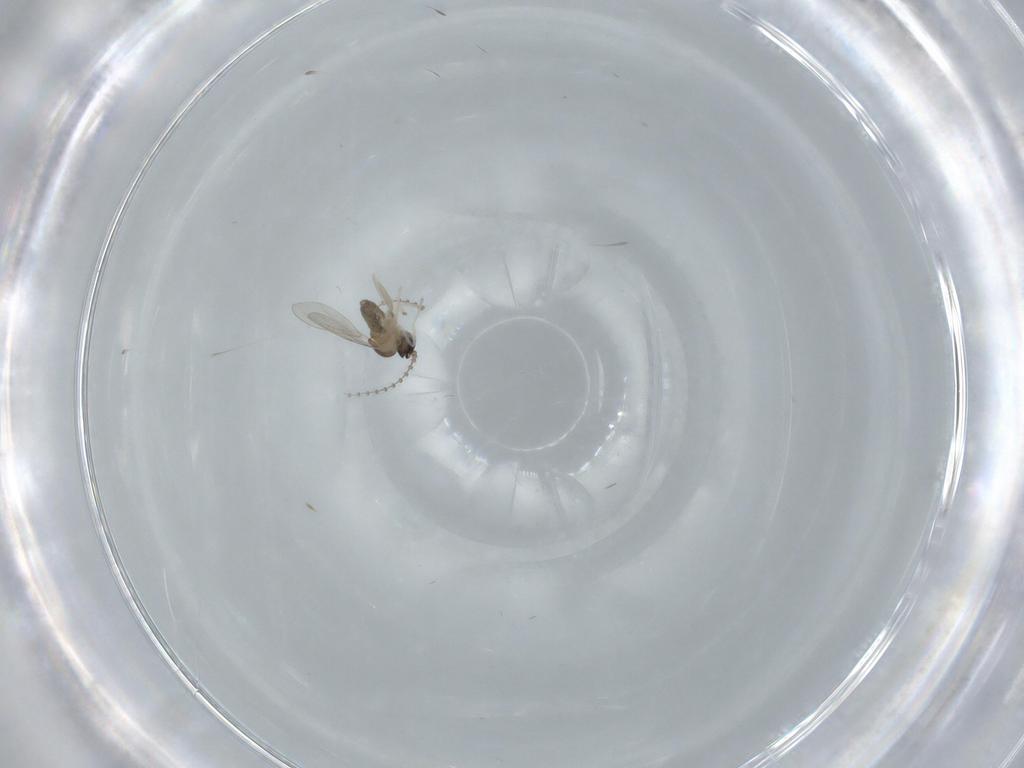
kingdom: Animalia
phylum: Arthropoda
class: Insecta
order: Diptera
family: Cecidomyiidae
